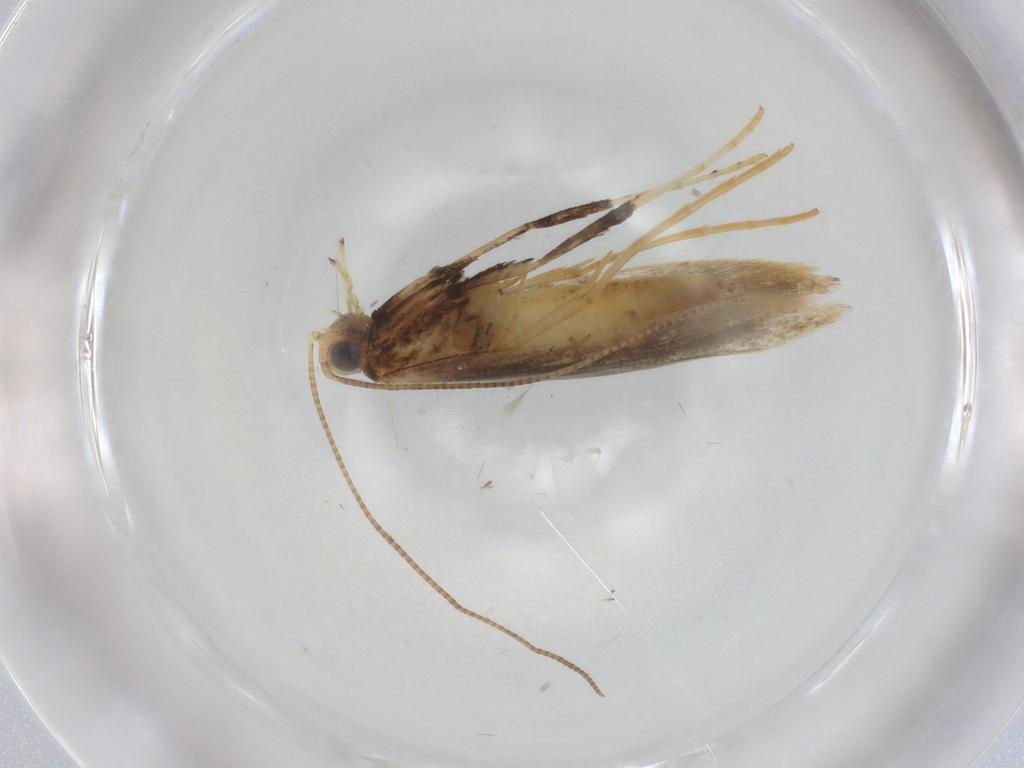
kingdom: Animalia
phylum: Arthropoda
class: Insecta
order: Lepidoptera
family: Gracillariidae
